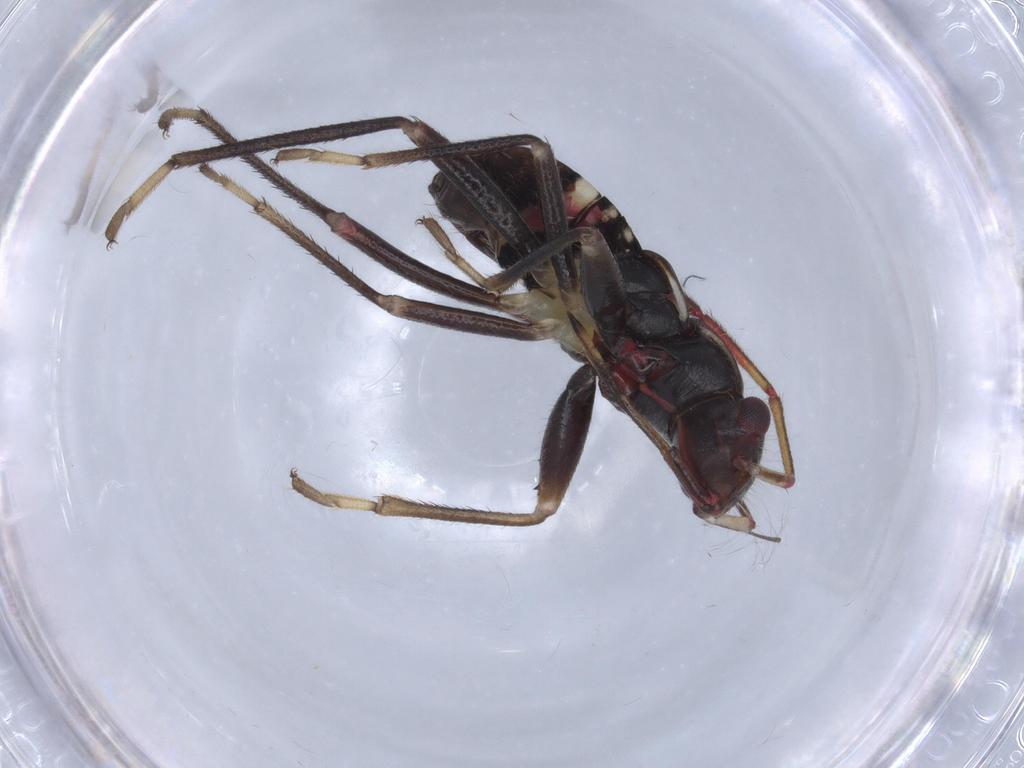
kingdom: Animalia
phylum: Arthropoda
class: Insecta
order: Hemiptera
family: Rhyparochromidae
